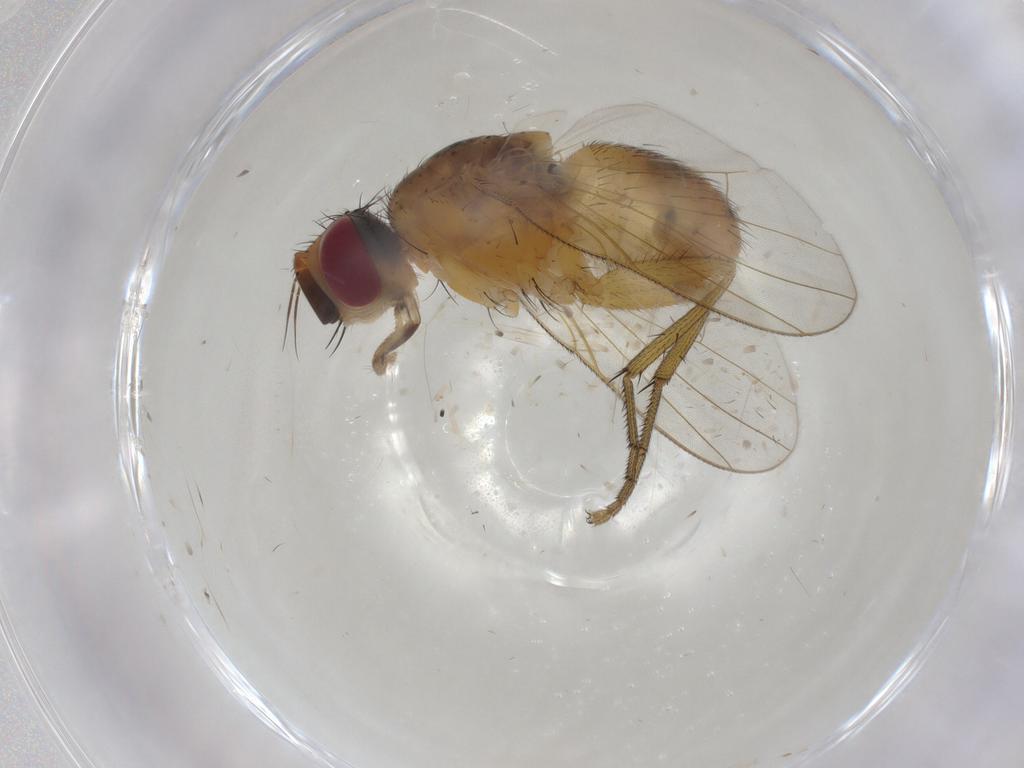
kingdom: Animalia
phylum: Arthropoda
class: Insecta
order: Diptera
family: Muscidae
